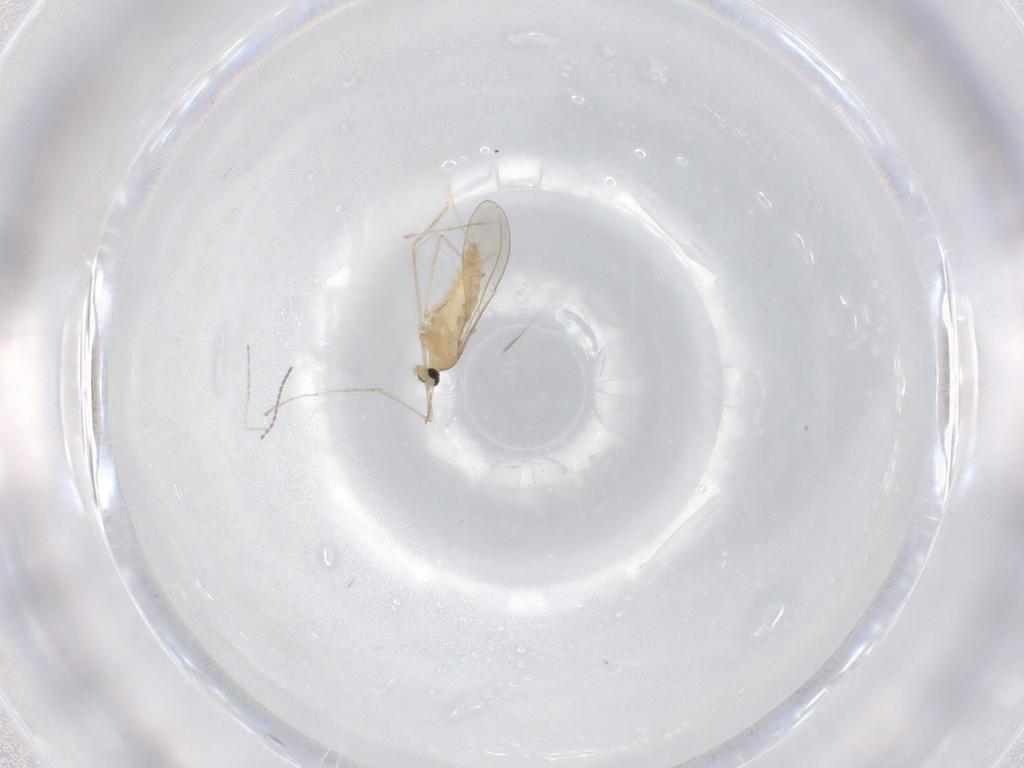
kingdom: Animalia
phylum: Arthropoda
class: Insecta
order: Diptera
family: Cecidomyiidae
